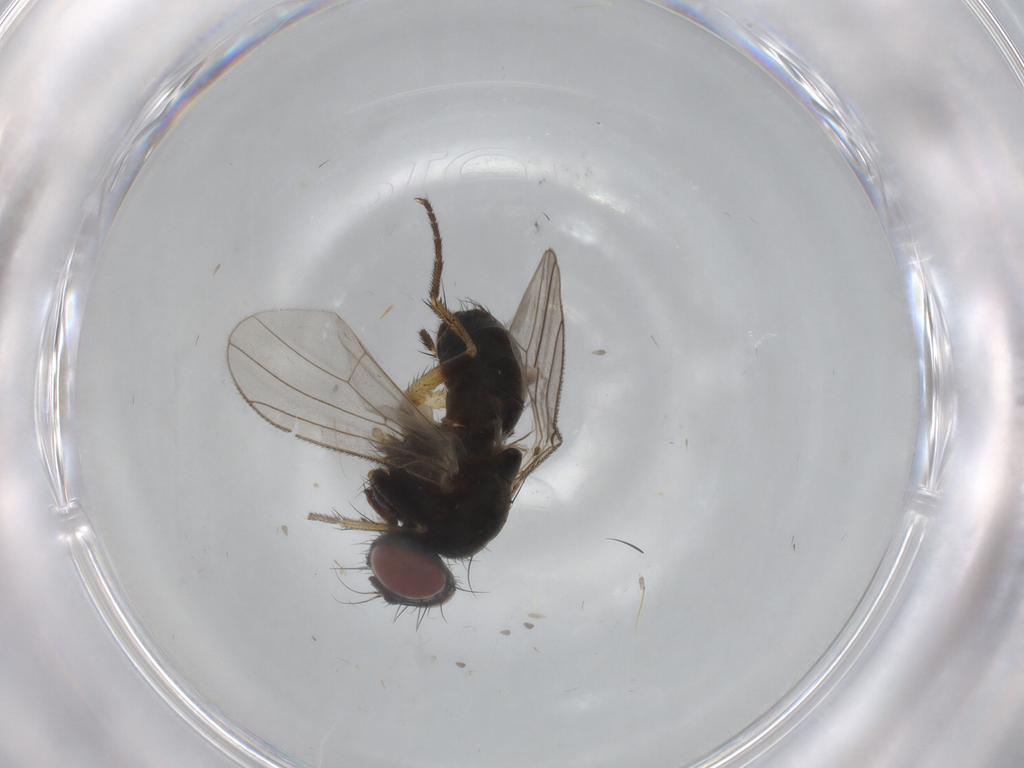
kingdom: Animalia
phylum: Arthropoda
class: Insecta
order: Diptera
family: Muscidae
